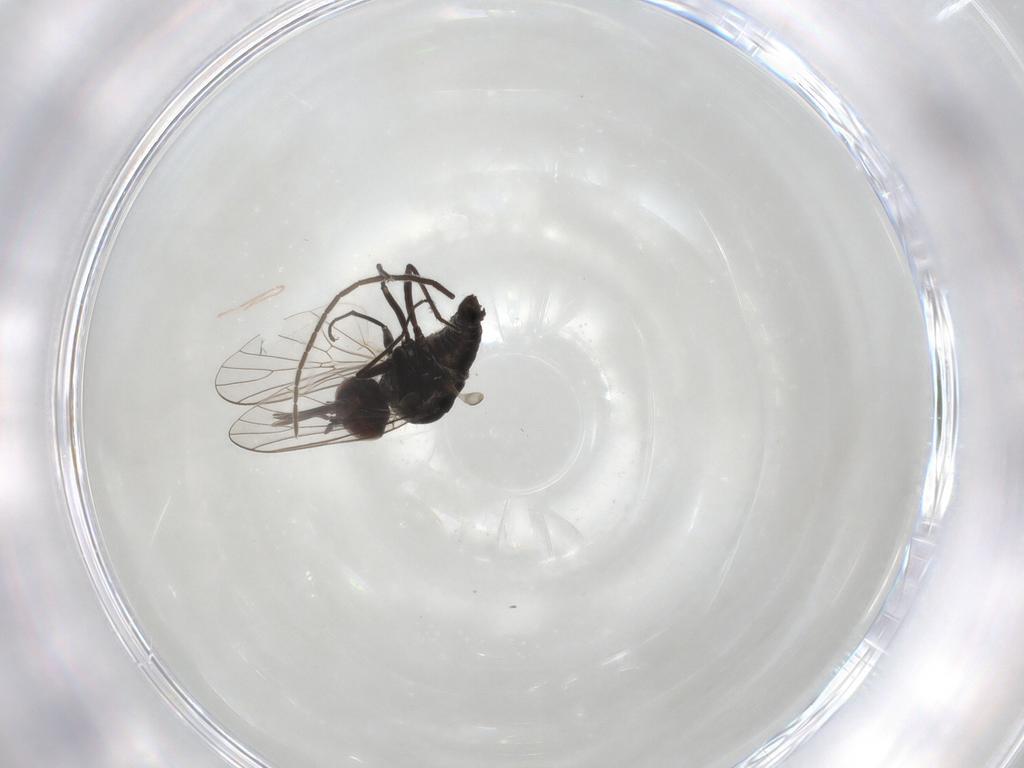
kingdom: Animalia
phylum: Arthropoda
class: Insecta
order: Diptera
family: Bombyliidae
